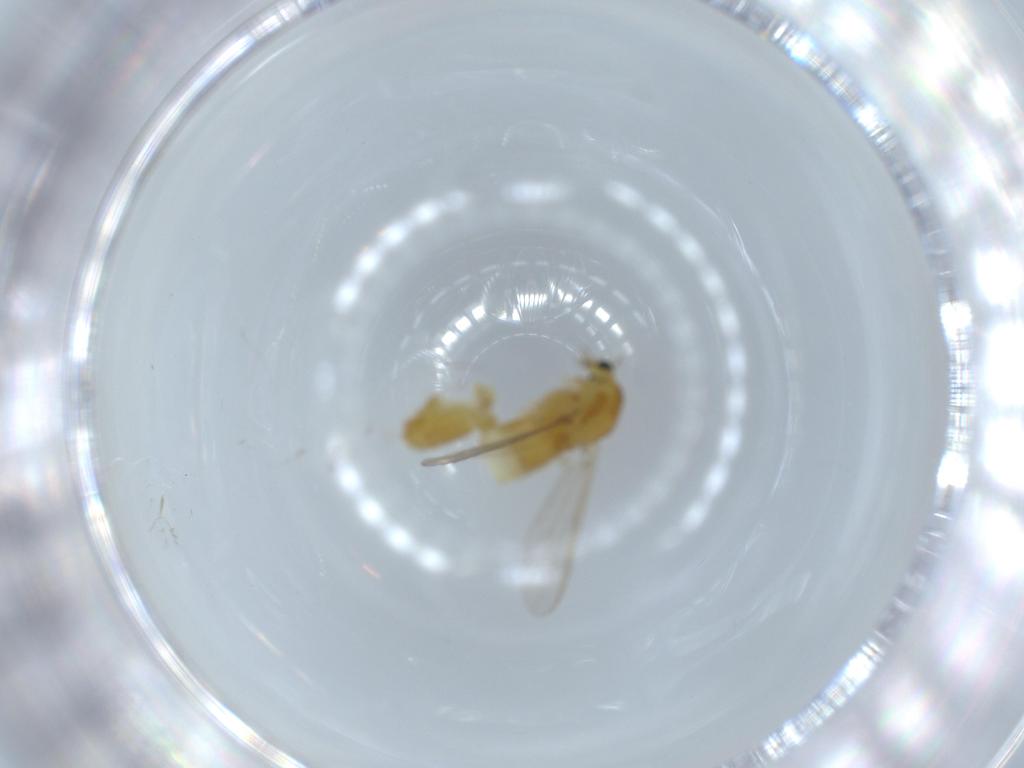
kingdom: Animalia
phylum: Arthropoda
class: Insecta
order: Diptera
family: Chironomidae
